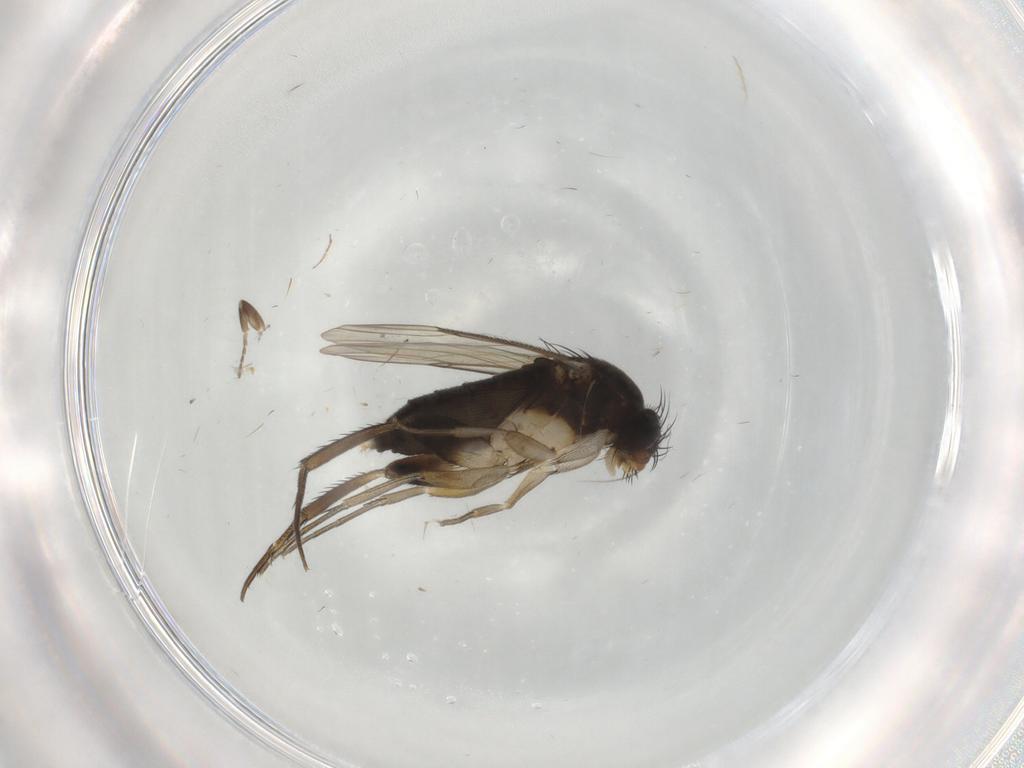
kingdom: Animalia
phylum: Arthropoda
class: Insecta
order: Diptera
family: Phoridae
